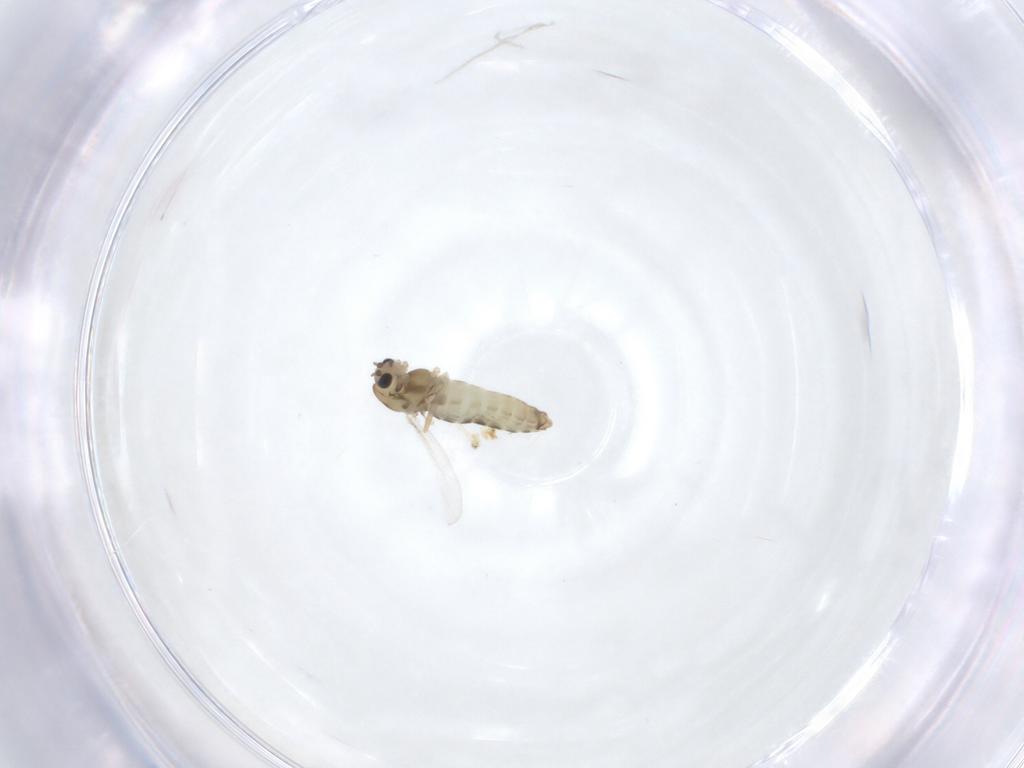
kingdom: Animalia
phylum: Arthropoda
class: Insecta
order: Diptera
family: Chironomidae
